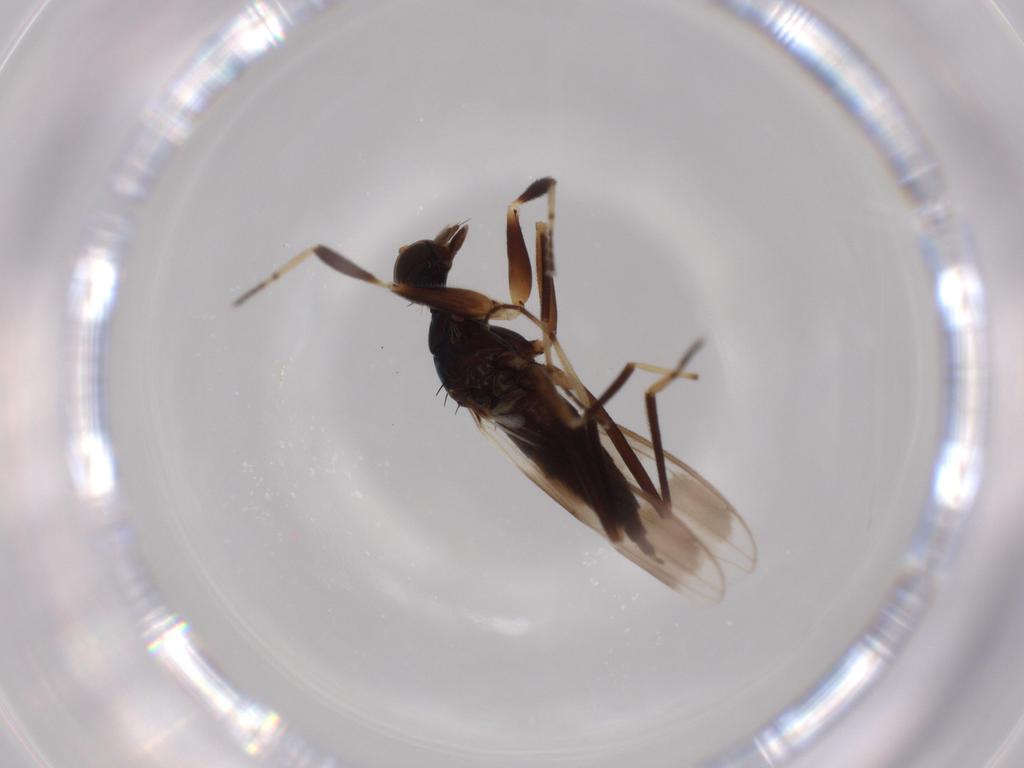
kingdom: Animalia
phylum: Arthropoda
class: Insecta
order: Diptera
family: Hybotidae
